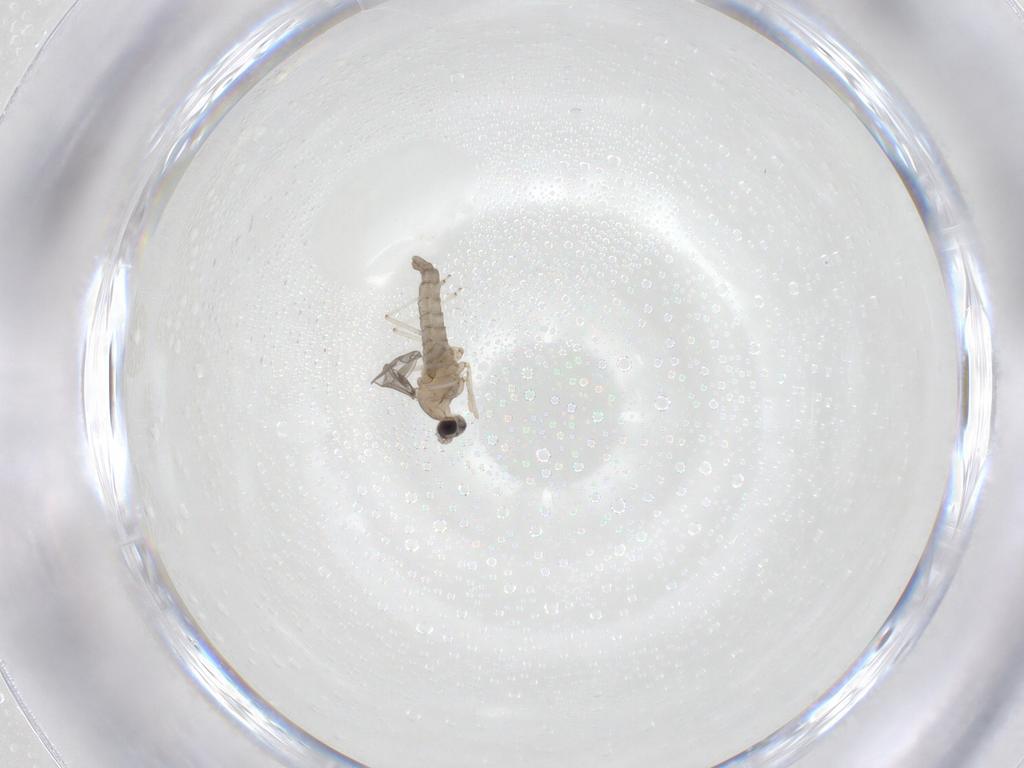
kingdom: Animalia
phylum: Arthropoda
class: Insecta
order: Diptera
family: Cecidomyiidae
